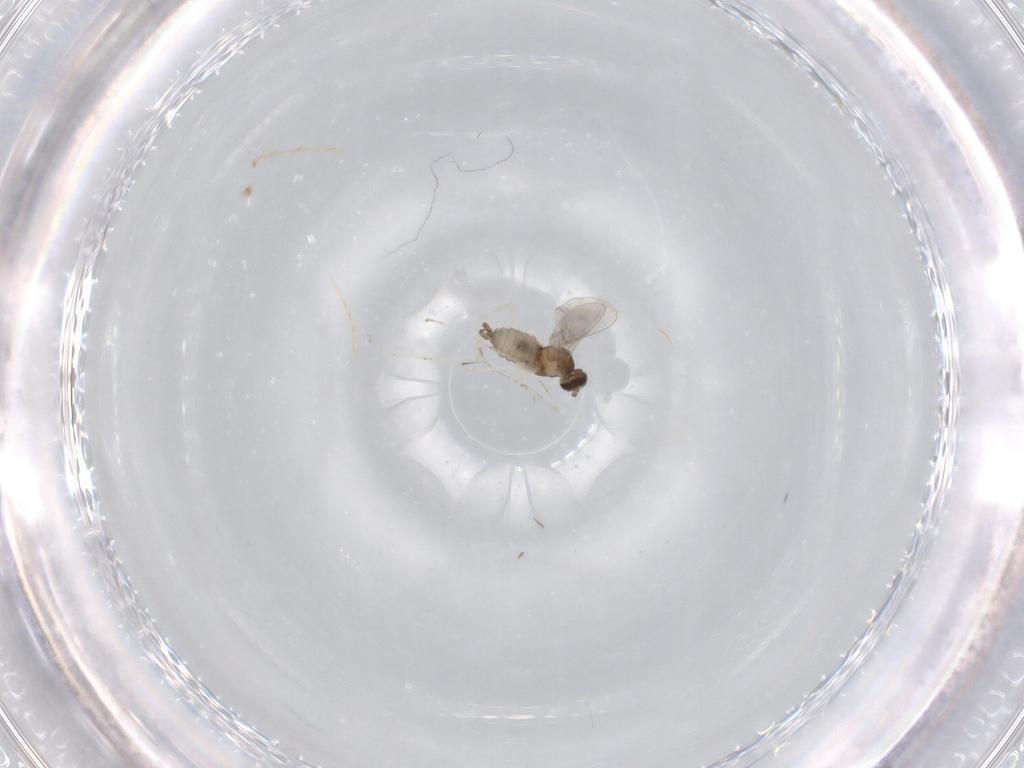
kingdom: Animalia
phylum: Arthropoda
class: Insecta
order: Diptera
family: Cecidomyiidae
